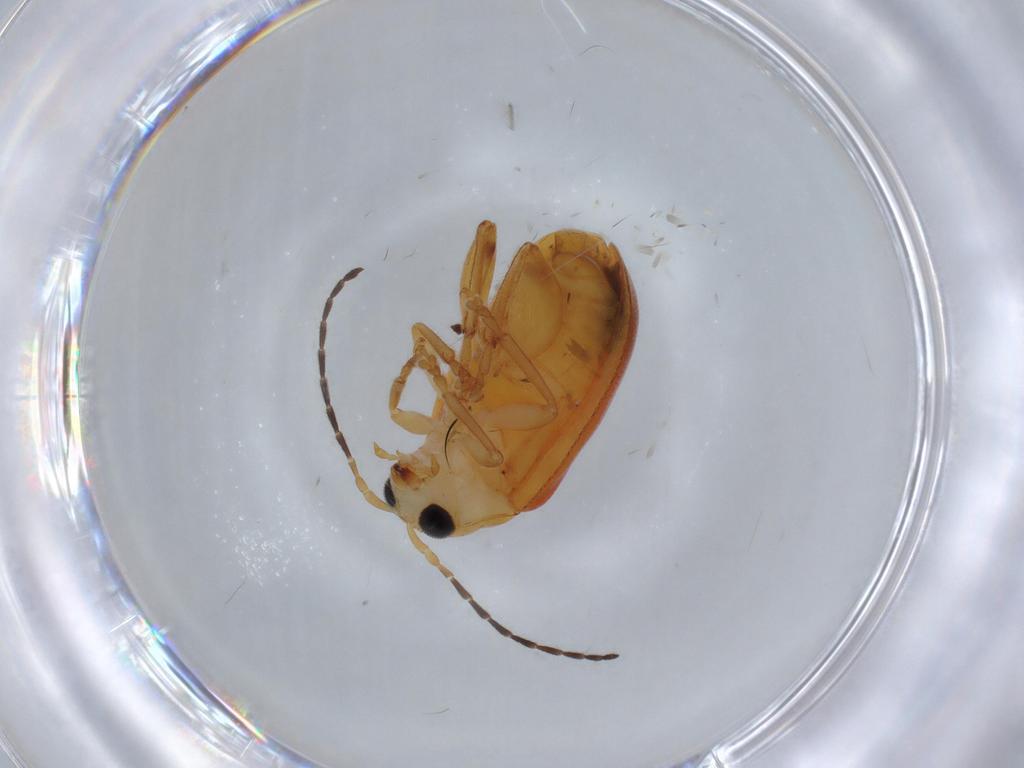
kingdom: Animalia
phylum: Arthropoda
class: Insecta
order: Coleoptera
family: Chrysomelidae
